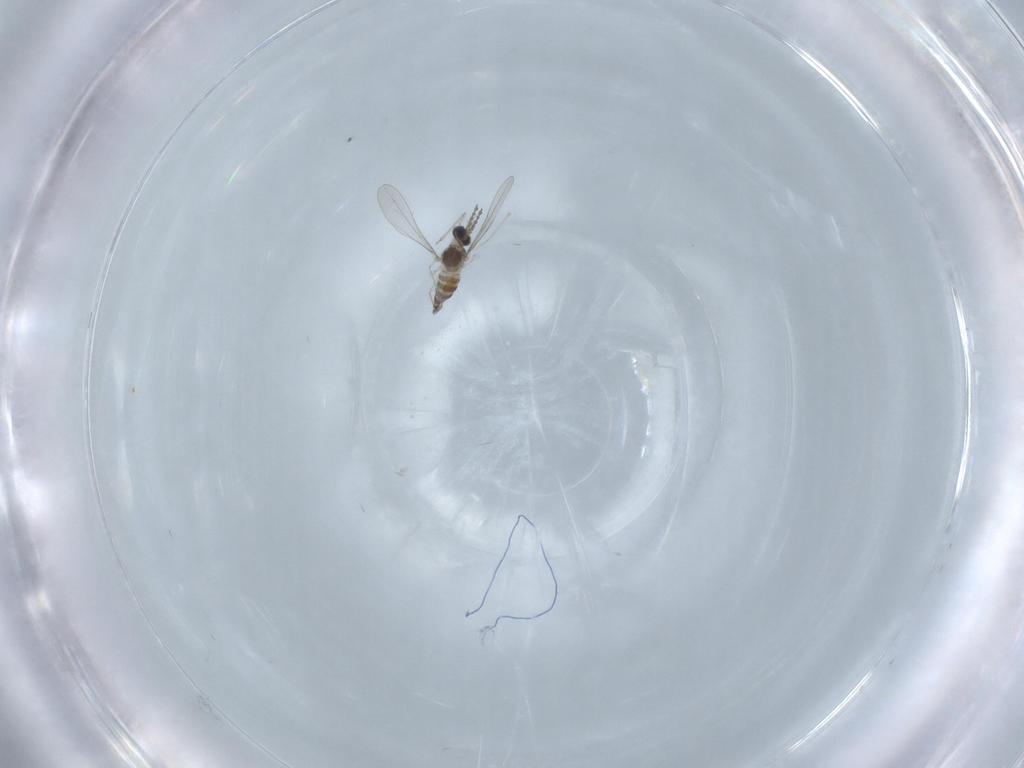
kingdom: Animalia
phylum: Arthropoda
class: Insecta
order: Diptera
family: Cecidomyiidae
